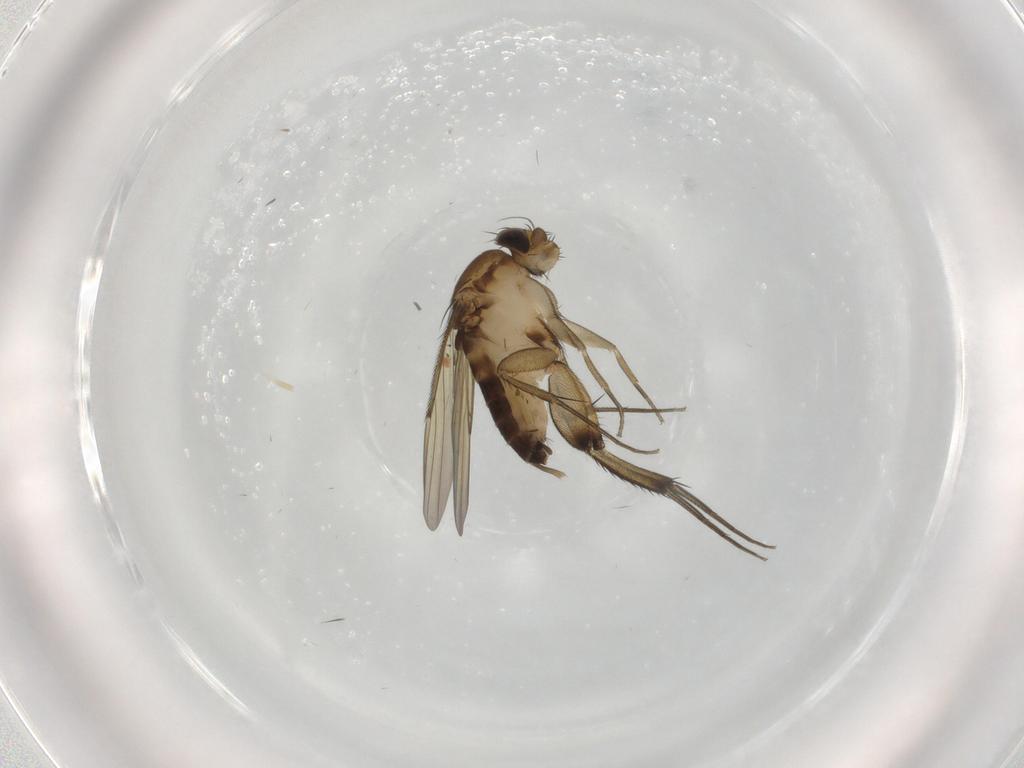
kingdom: Animalia
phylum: Arthropoda
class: Insecta
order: Diptera
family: Phoridae
